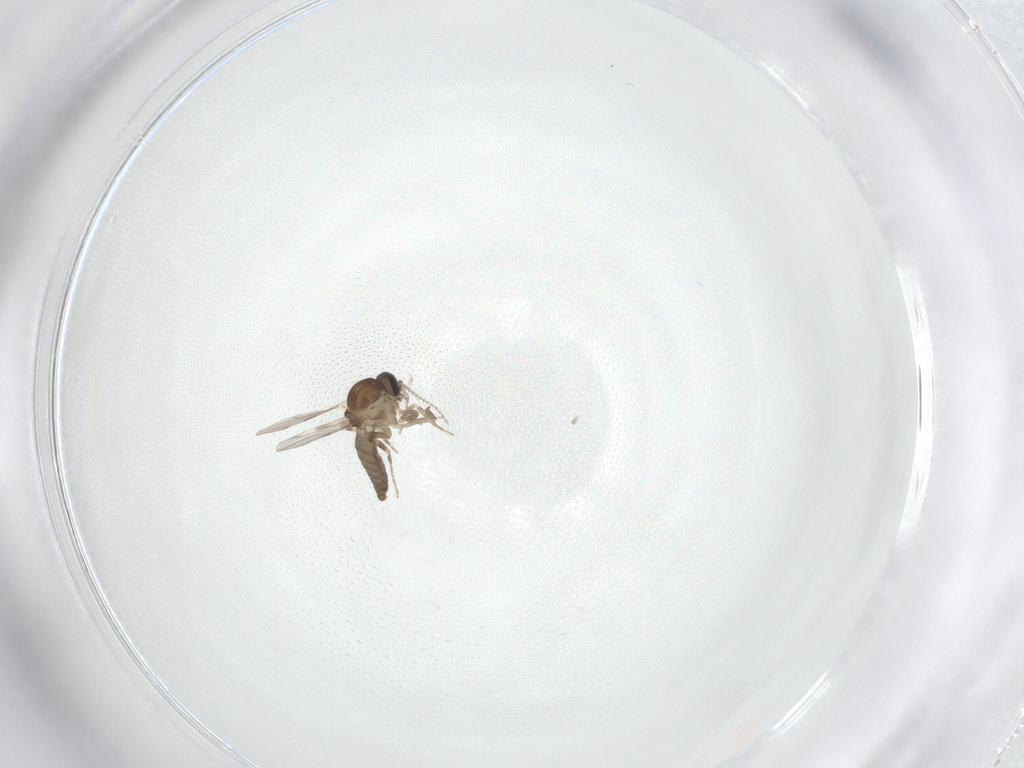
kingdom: Animalia
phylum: Arthropoda
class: Insecta
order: Diptera
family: Ceratopogonidae
